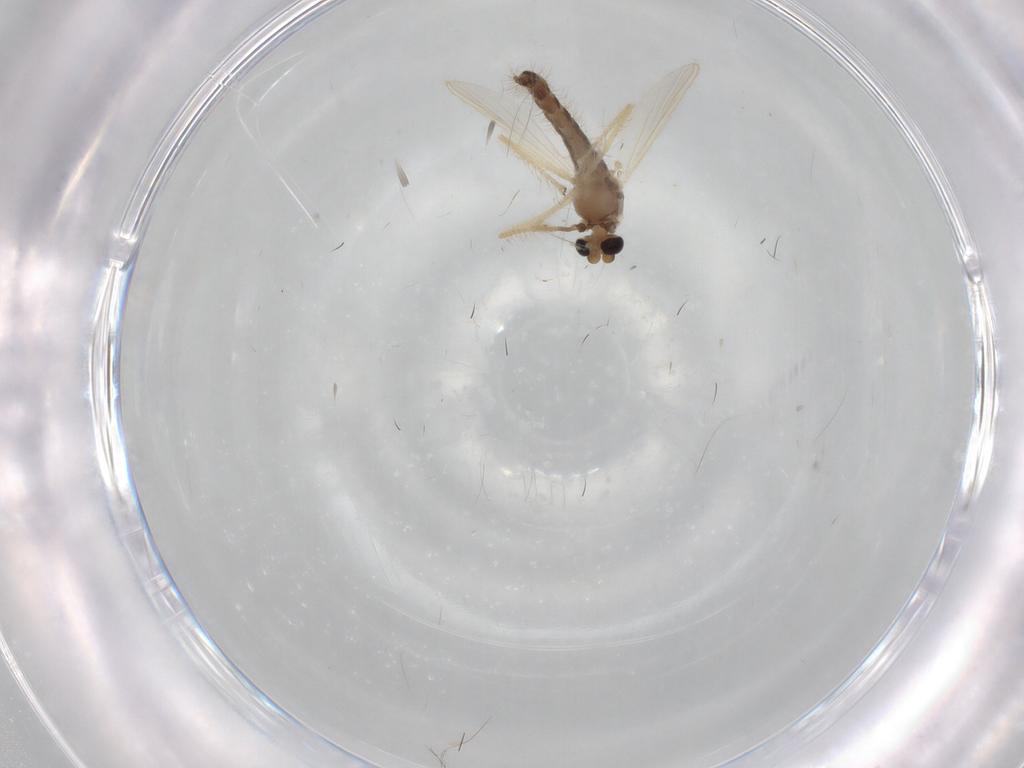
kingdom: Animalia
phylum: Arthropoda
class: Insecta
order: Diptera
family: Chironomidae
